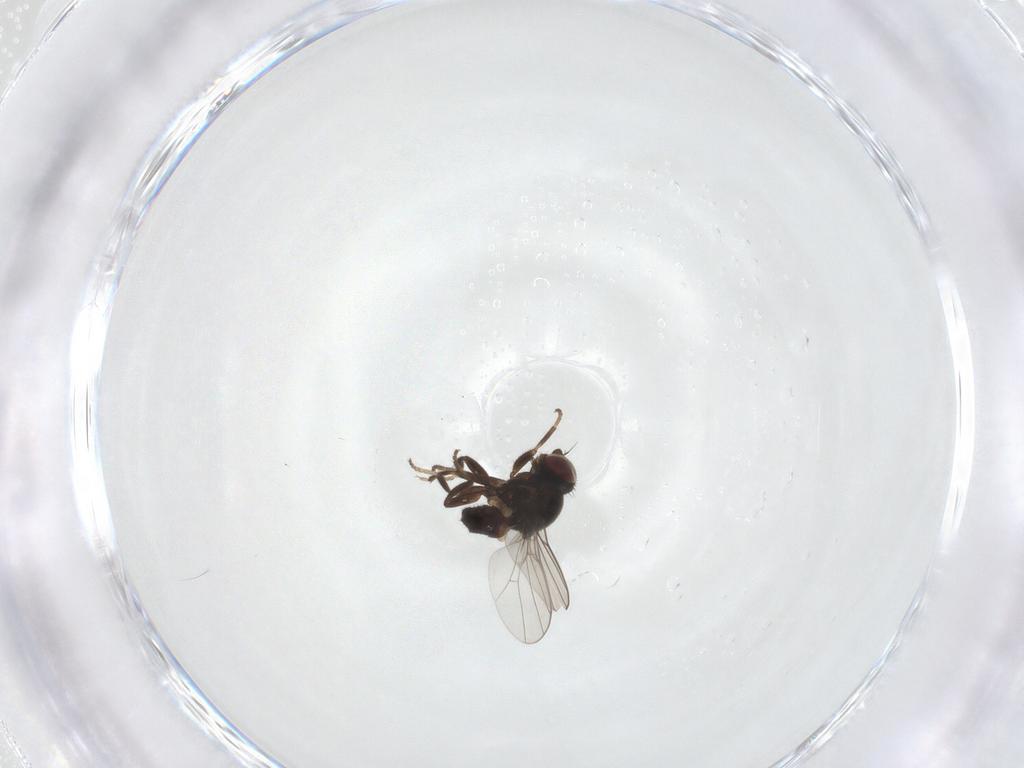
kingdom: Animalia
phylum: Arthropoda
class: Insecta
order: Diptera
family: Chloropidae
